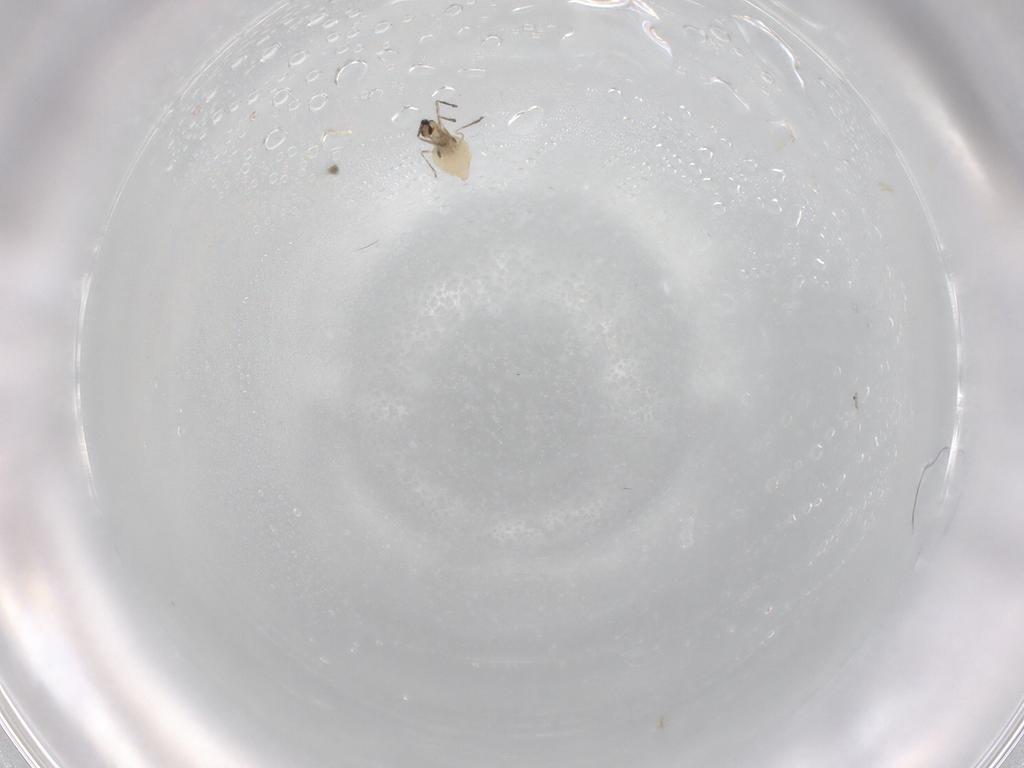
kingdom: Animalia
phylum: Arthropoda
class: Insecta
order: Diptera
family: Cecidomyiidae
